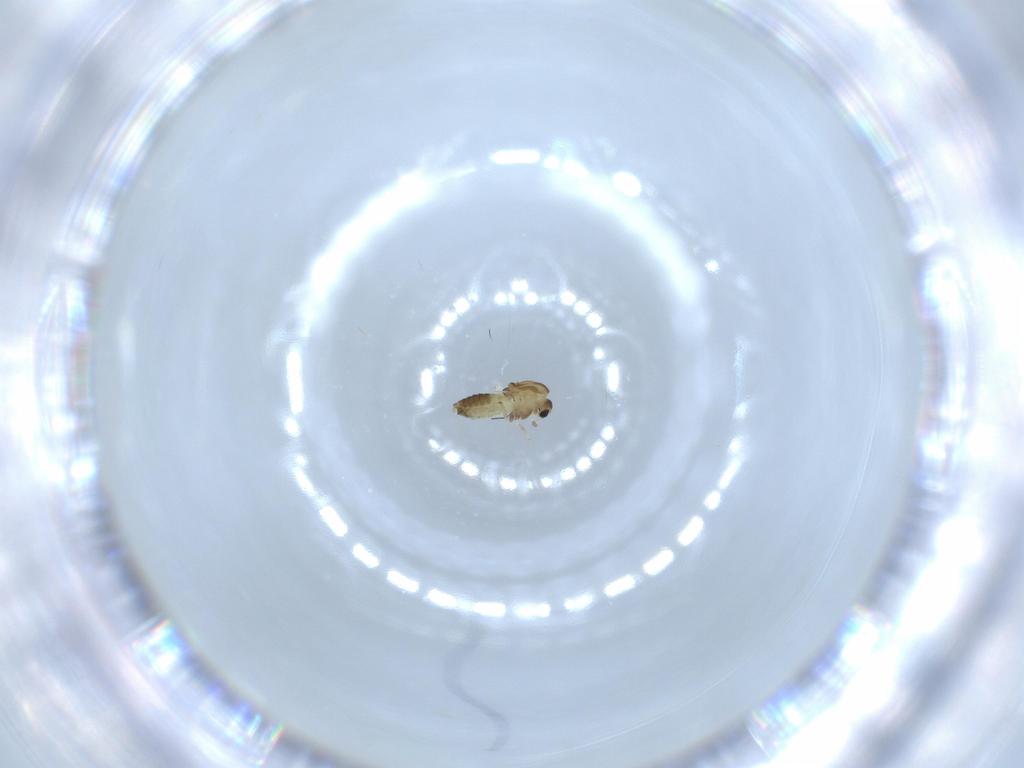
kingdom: Animalia
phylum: Arthropoda
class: Insecta
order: Diptera
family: Chironomidae
